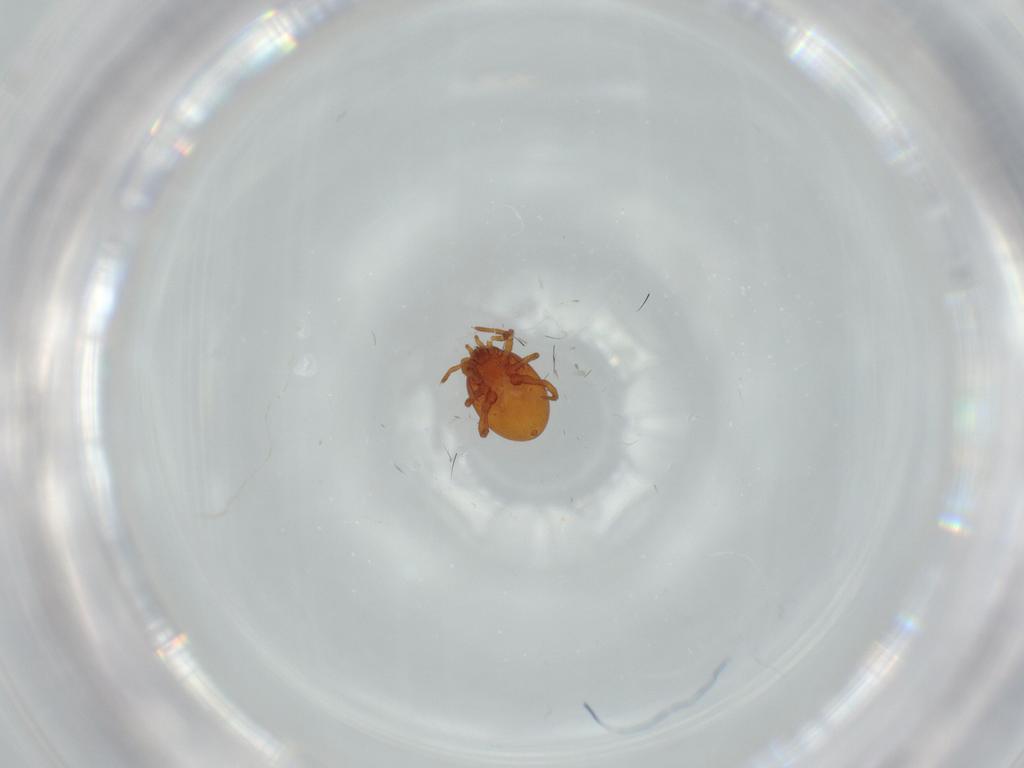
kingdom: Animalia
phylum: Arthropoda
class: Arachnida
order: Mesostigmata
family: Parasitidae
